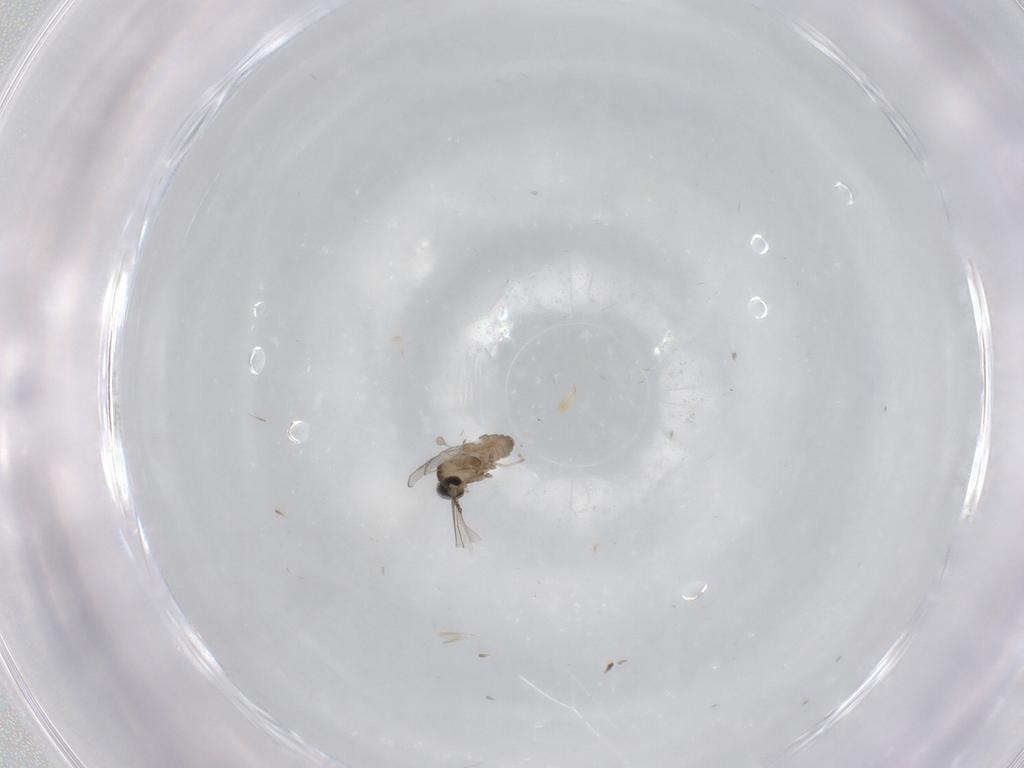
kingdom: Animalia
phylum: Arthropoda
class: Insecta
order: Diptera
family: Cecidomyiidae
